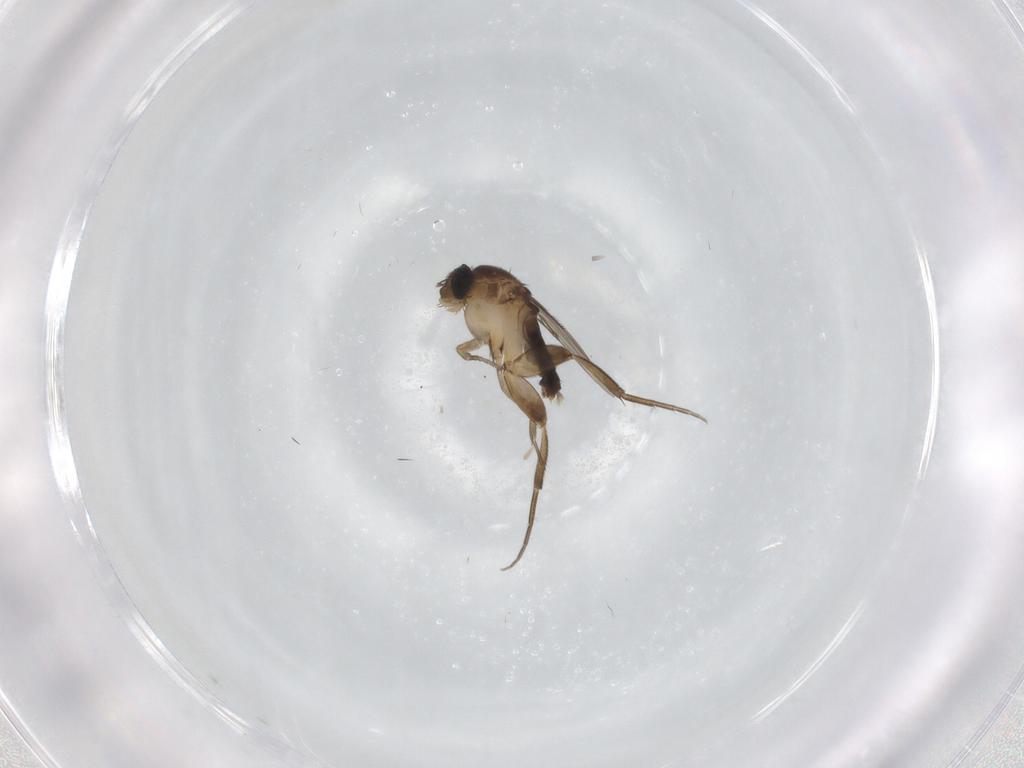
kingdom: Animalia
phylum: Arthropoda
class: Insecta
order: Diptera
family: Phoridae
